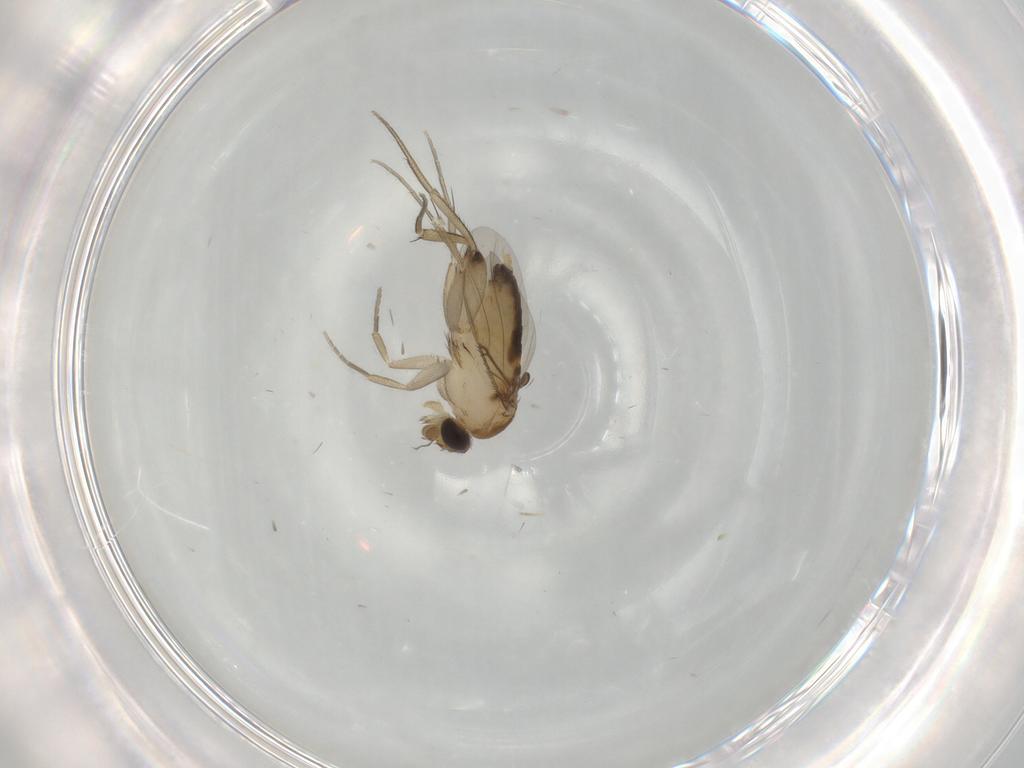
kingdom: Animalia
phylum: Arthropoda
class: Insecta
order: Diptera
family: Phoridae
